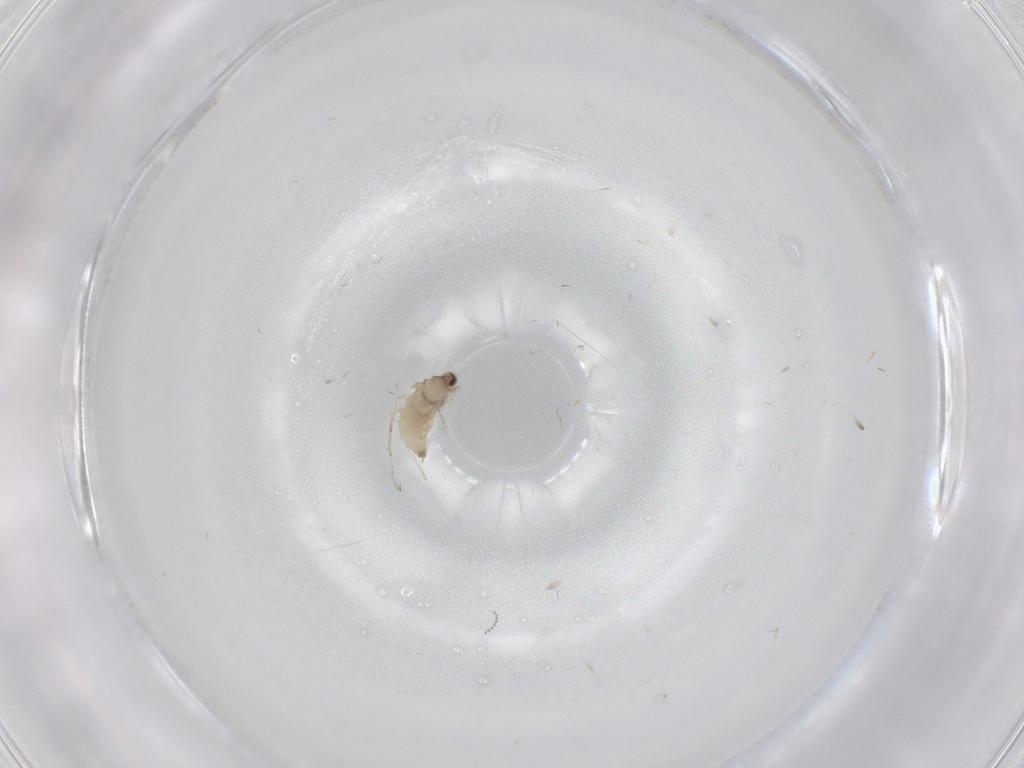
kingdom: Animalia
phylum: Arthropoda
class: Insecta
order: Diptera
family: Cecidomyiidae
